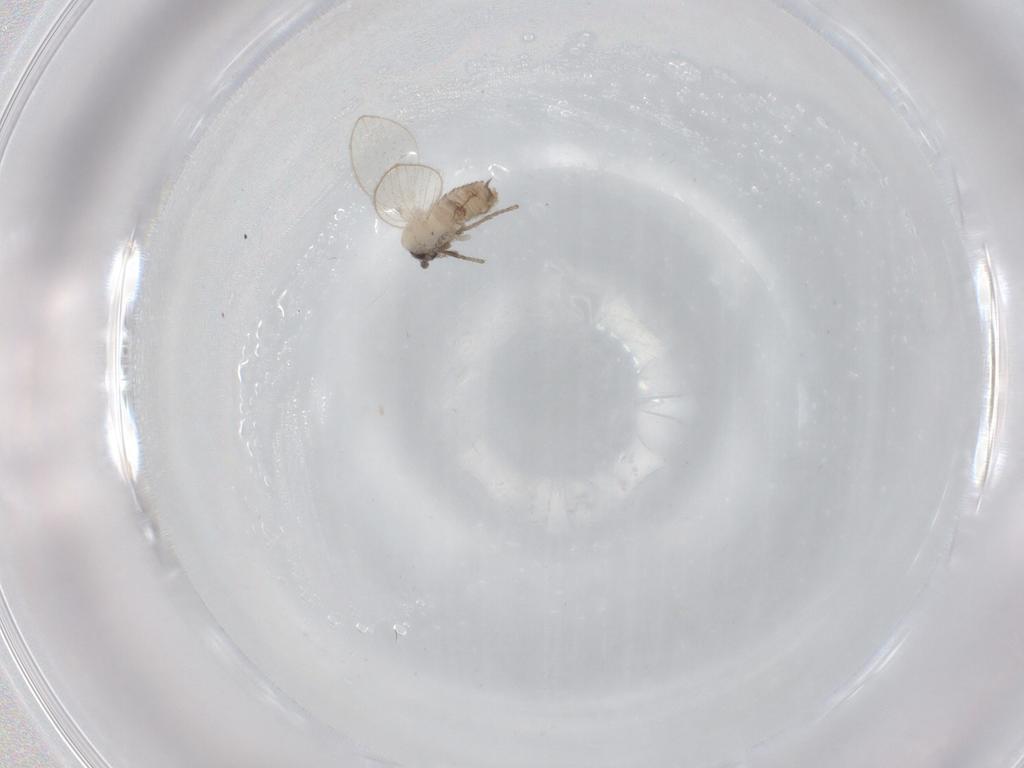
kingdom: Animalia
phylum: Arthropoda
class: Insecta
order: Diptera
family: Psychodidae
